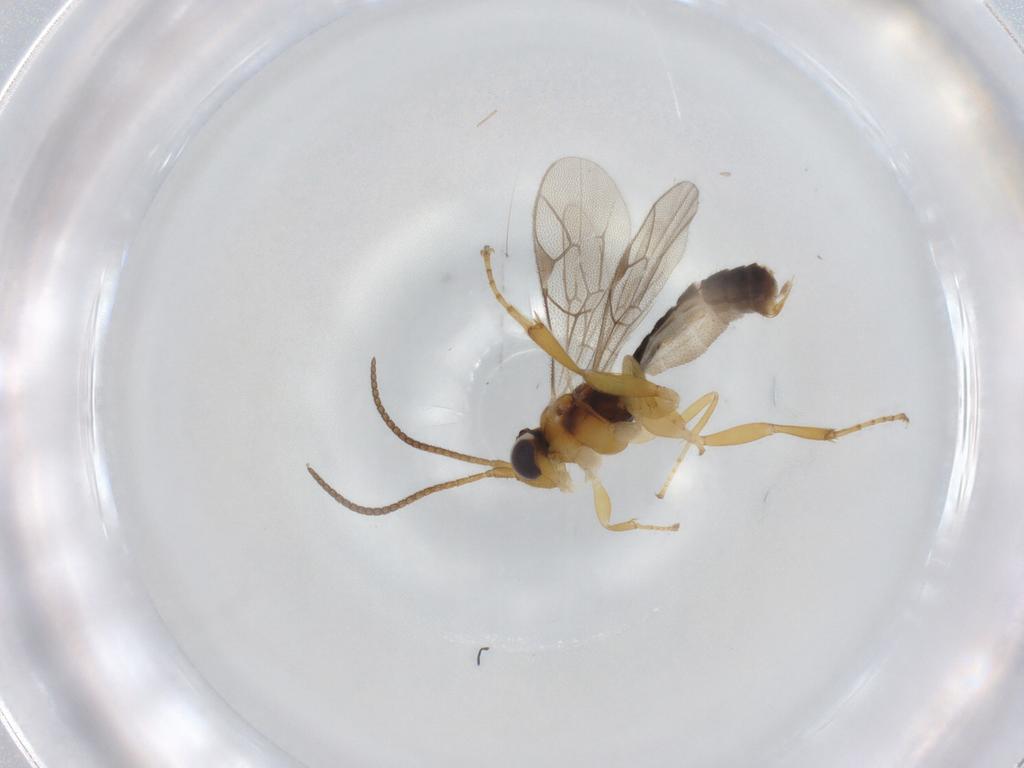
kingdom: Animalia
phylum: Arthropoda
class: Insecta
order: Hymenoptera
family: Ichneumonidae
